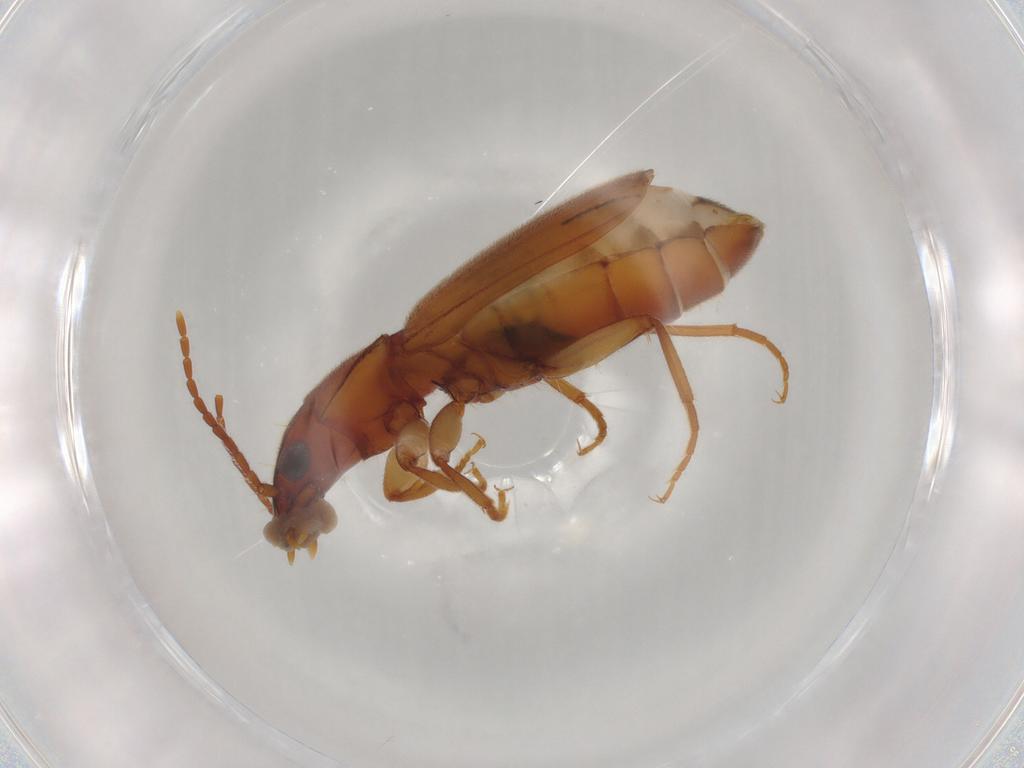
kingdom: Animalia
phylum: Arthropoda
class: Insecta
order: Coleoptera
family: Carabidae
